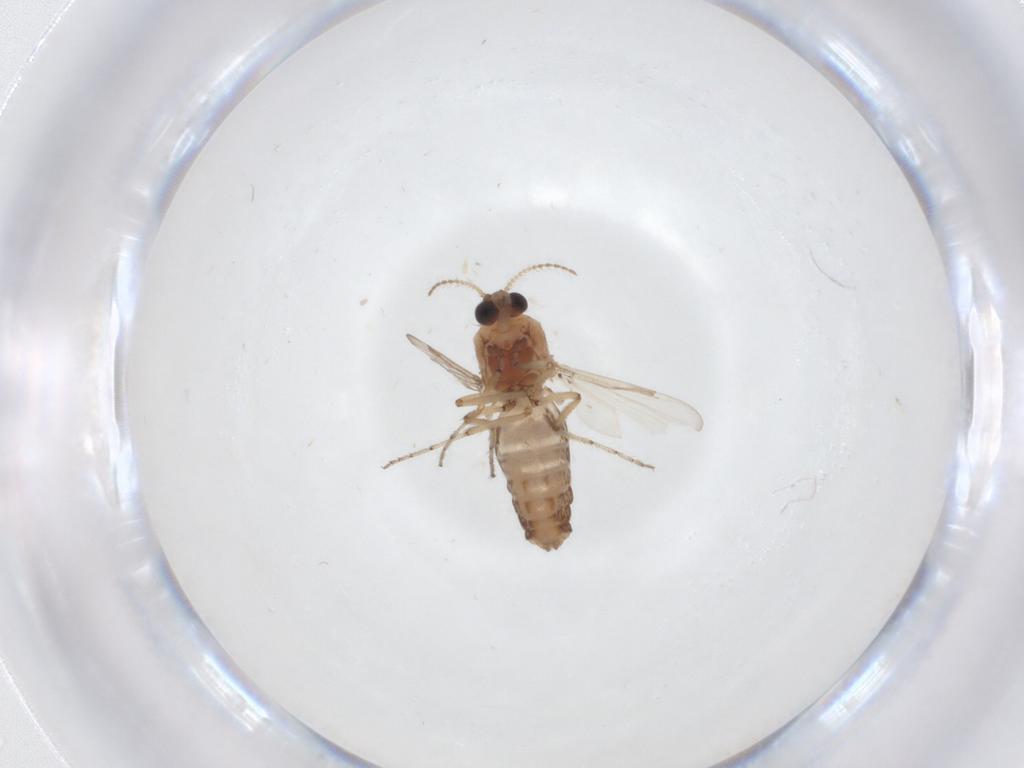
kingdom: Animalia
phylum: Arthropoda
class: Insecta
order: Diptera
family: Ceratopogonidae
